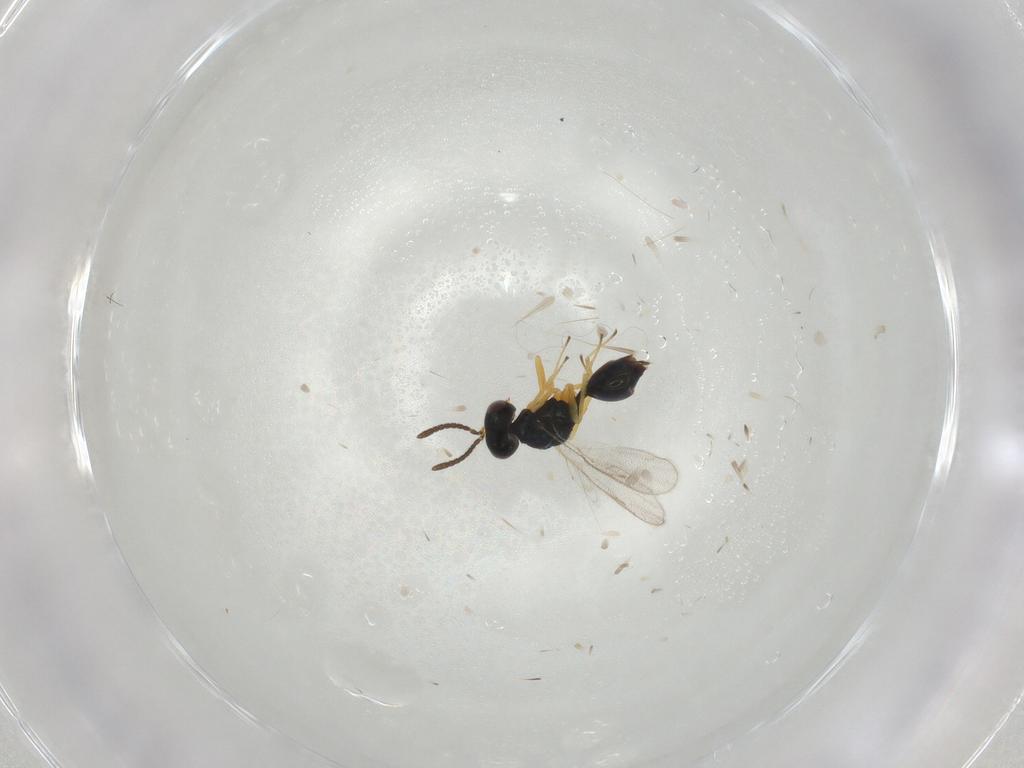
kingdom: Animalia
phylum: Arthropoda
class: Insecta
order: Hymenoptera
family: Pteromalidae
